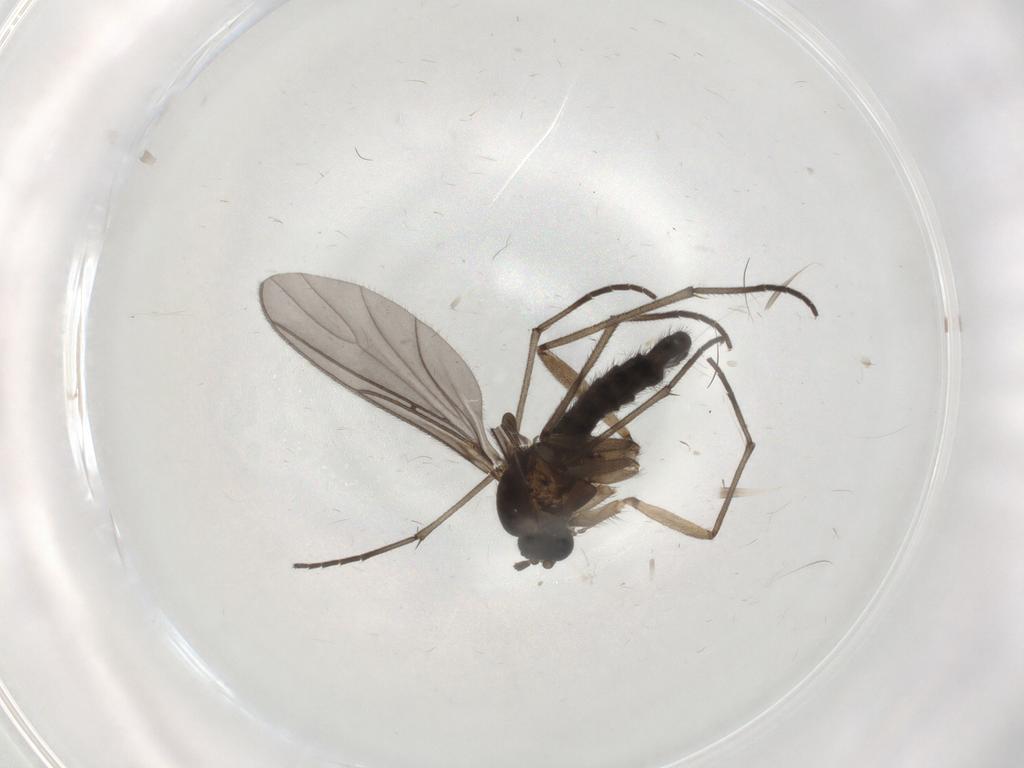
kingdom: Animalia
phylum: Arthropoda
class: Insecta
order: Diptera
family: Sciaridae
